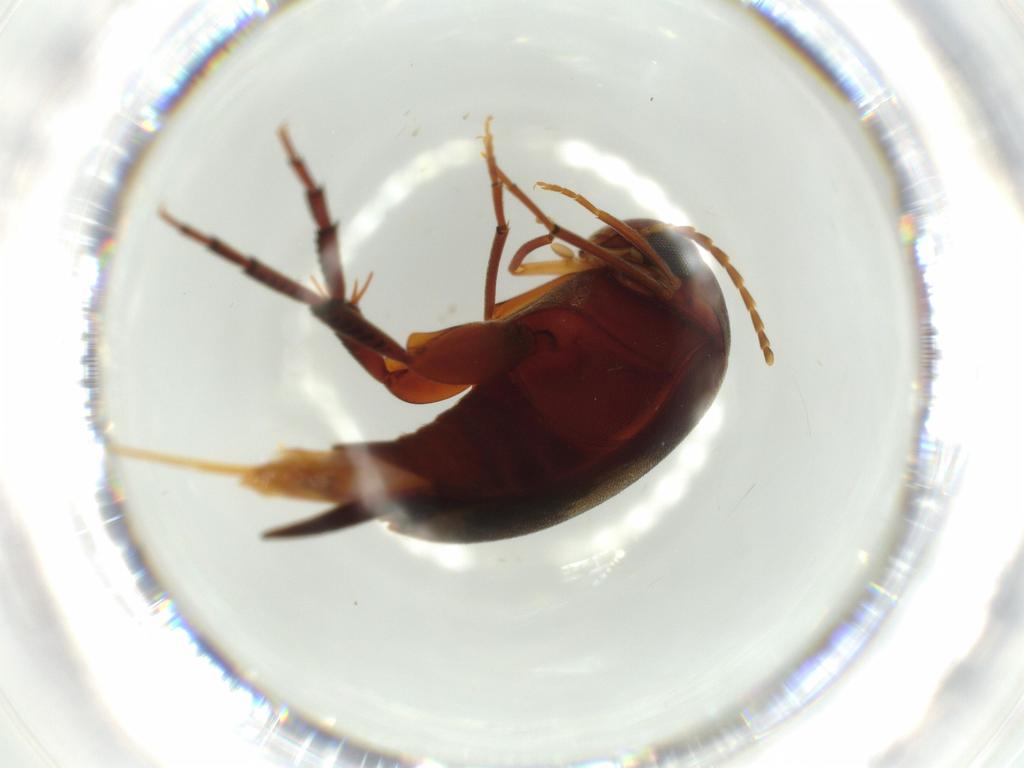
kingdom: Animalia
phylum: Arthropoda
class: Insecta
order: Coleoptera
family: Mordellidae
